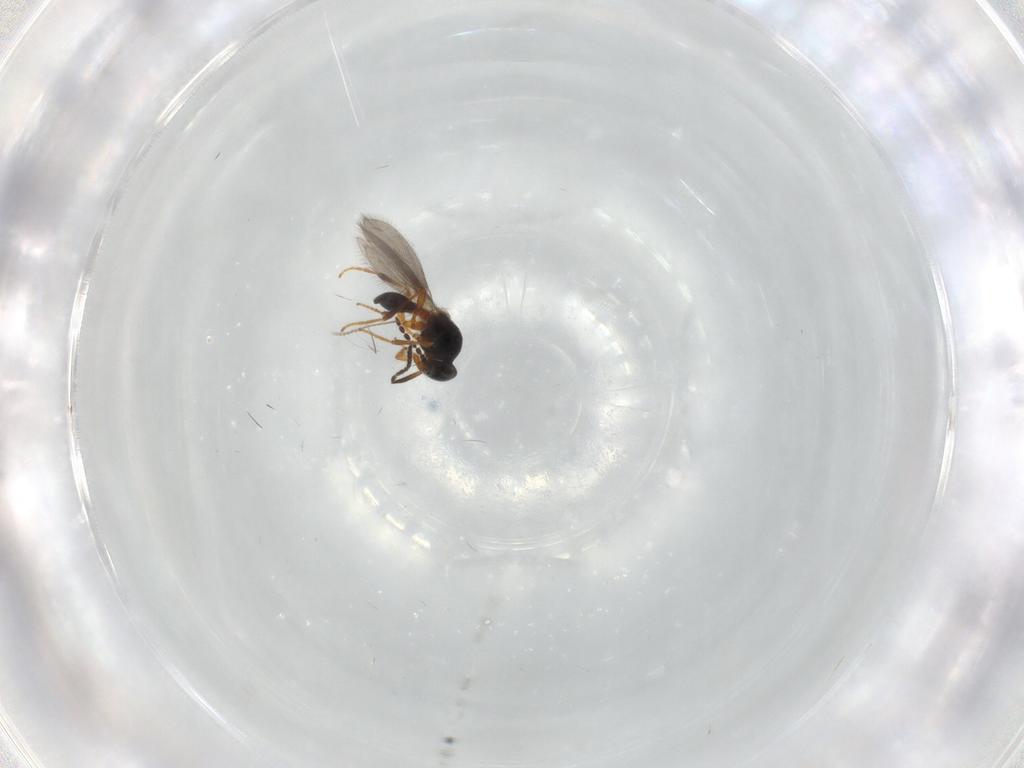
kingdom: Animalia
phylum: Arthropoda
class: Insecta
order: Hymenoptera
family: Platygastridae
